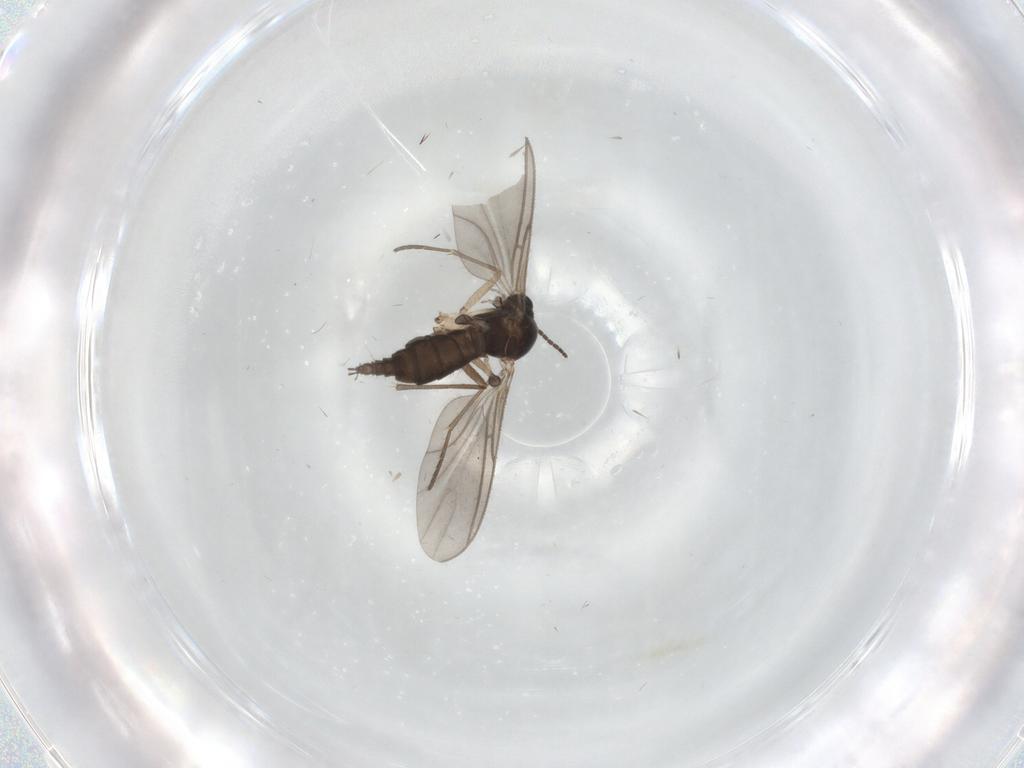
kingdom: Animalia
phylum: Arthropoda
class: Insecta
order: Diptera
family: Sciaridae
